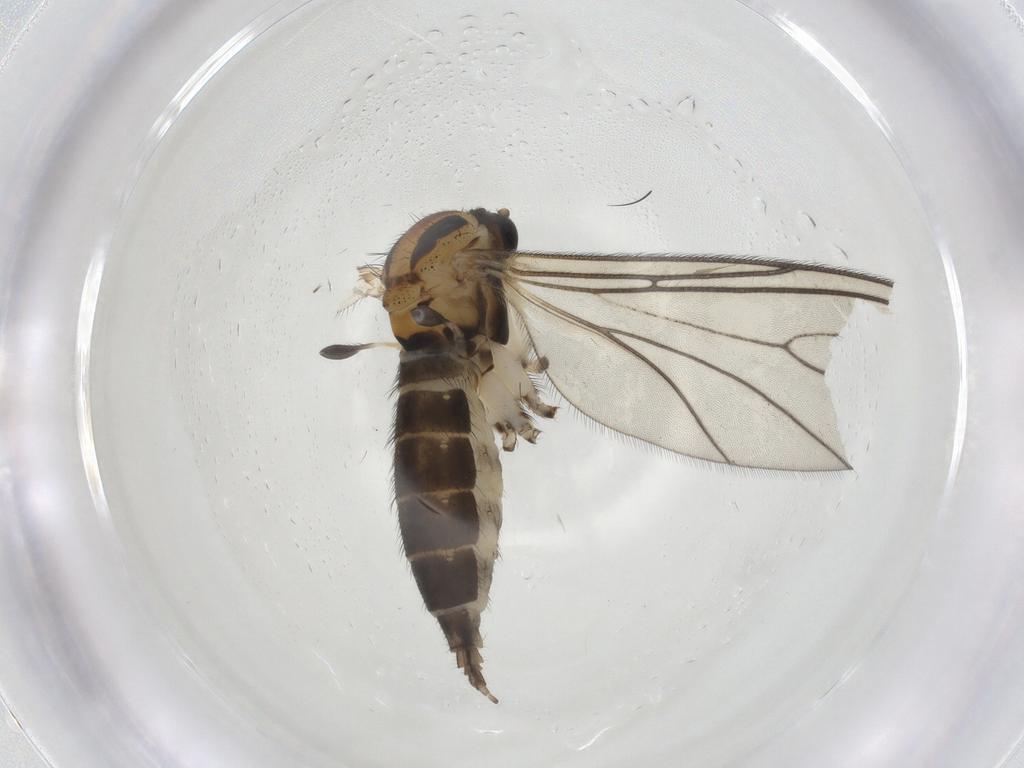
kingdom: Animalia
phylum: Arthropoda
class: Insecta
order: Diptera
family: Sciaridae
